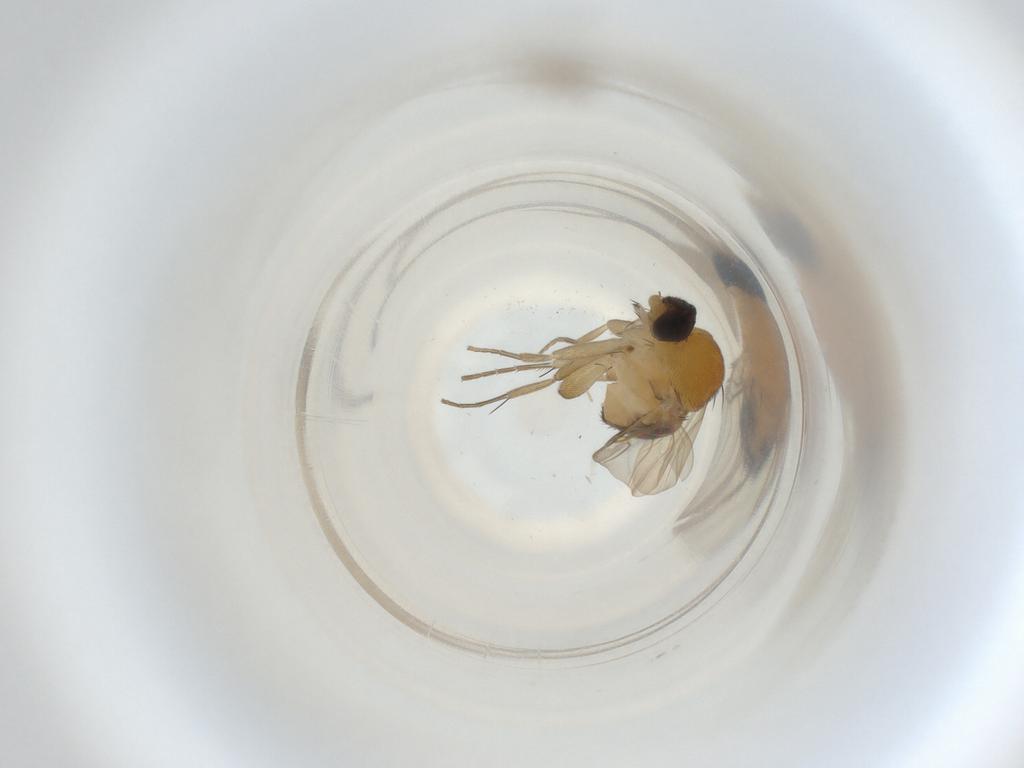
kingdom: Animalia
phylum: Arthropoda
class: Insecta
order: Diptera
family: Phoridae
